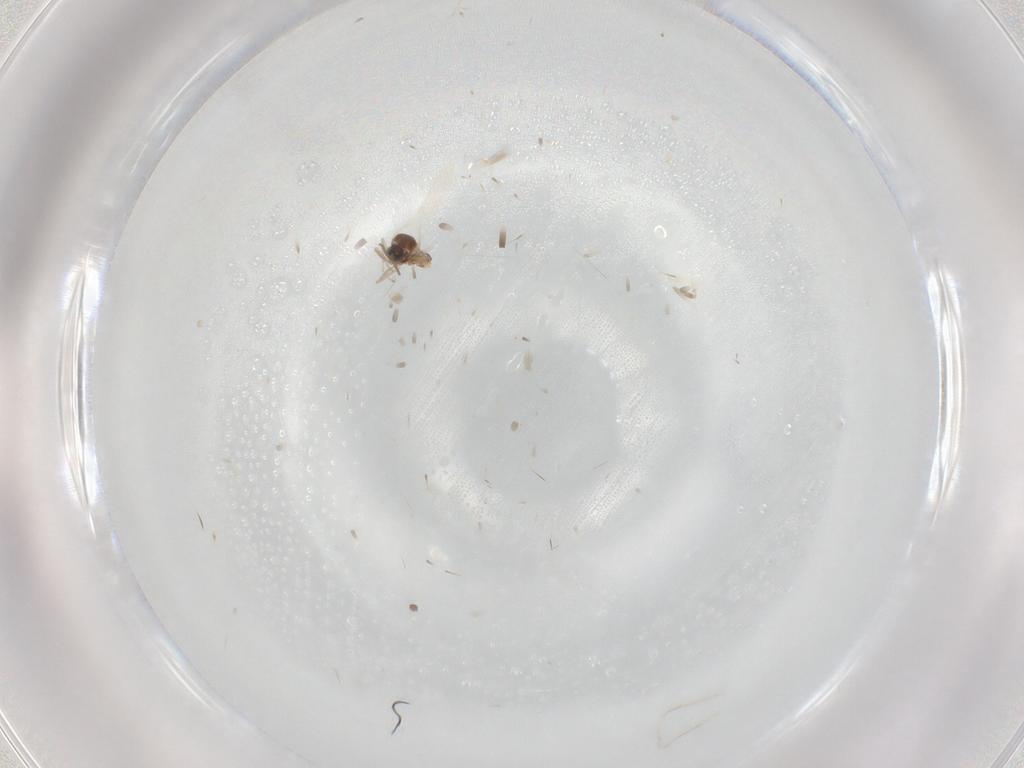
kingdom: Animalia
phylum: Arthropoda
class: Insecta
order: Diptera
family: Cecidomyiidae
